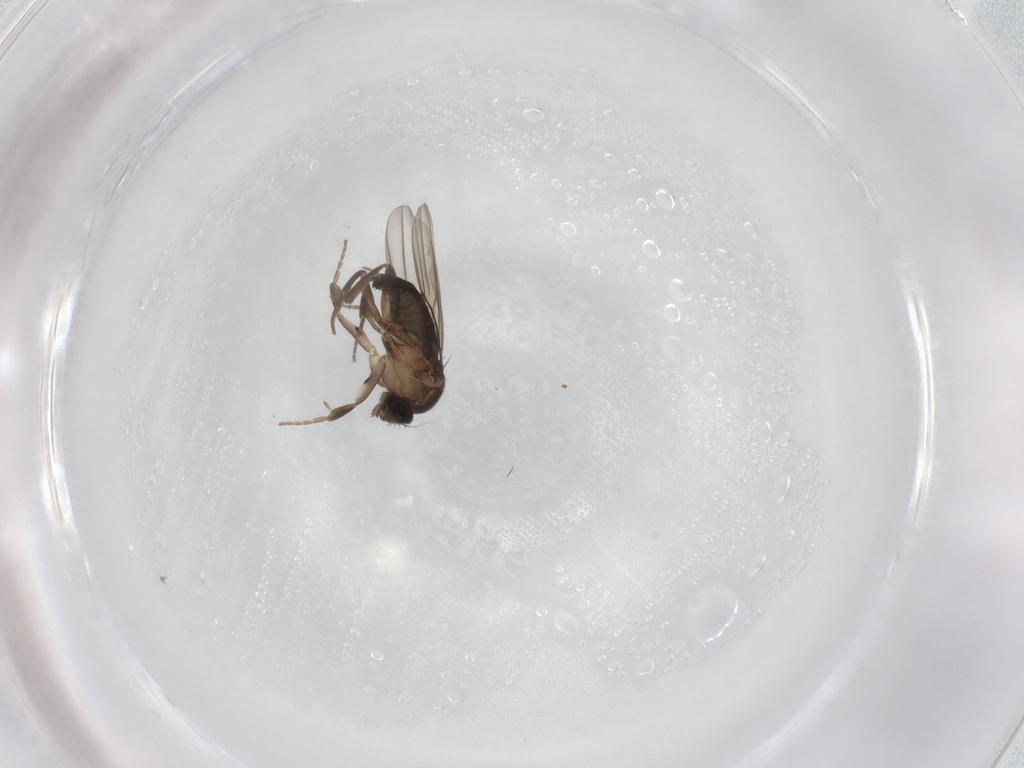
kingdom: Animalia
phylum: Arthropoda
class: Insecta
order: Diptera
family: Phoridae
